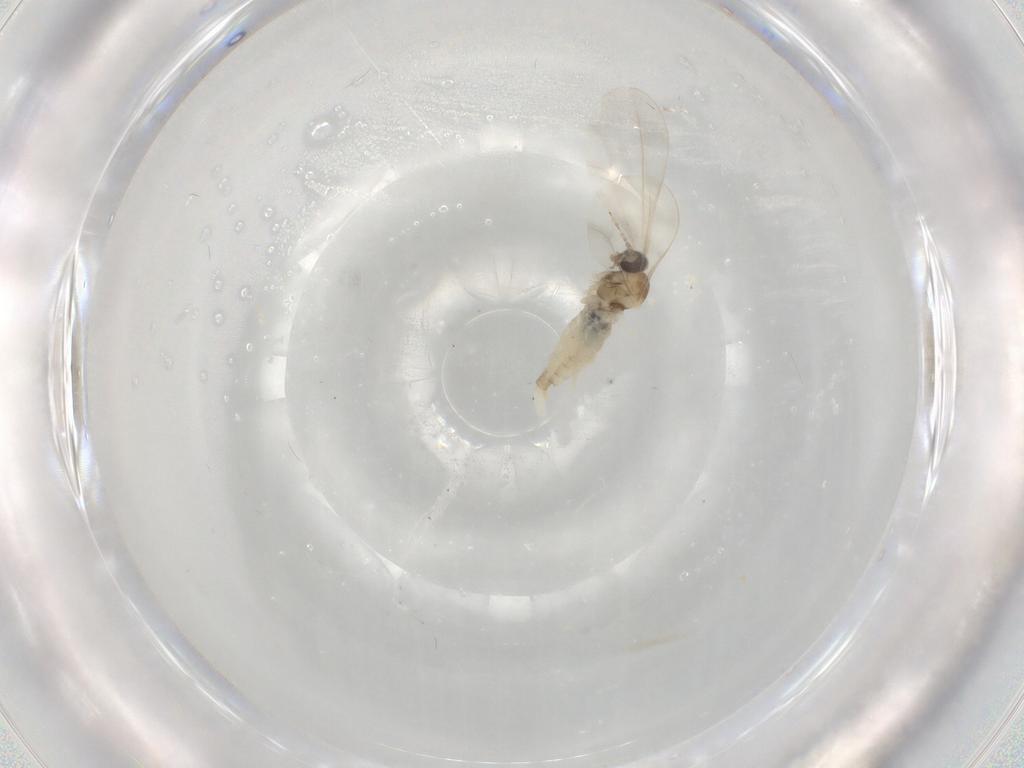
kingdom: Animalia
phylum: Arthropoda
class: Insecta
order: Diptera
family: Cecidomyiidae
